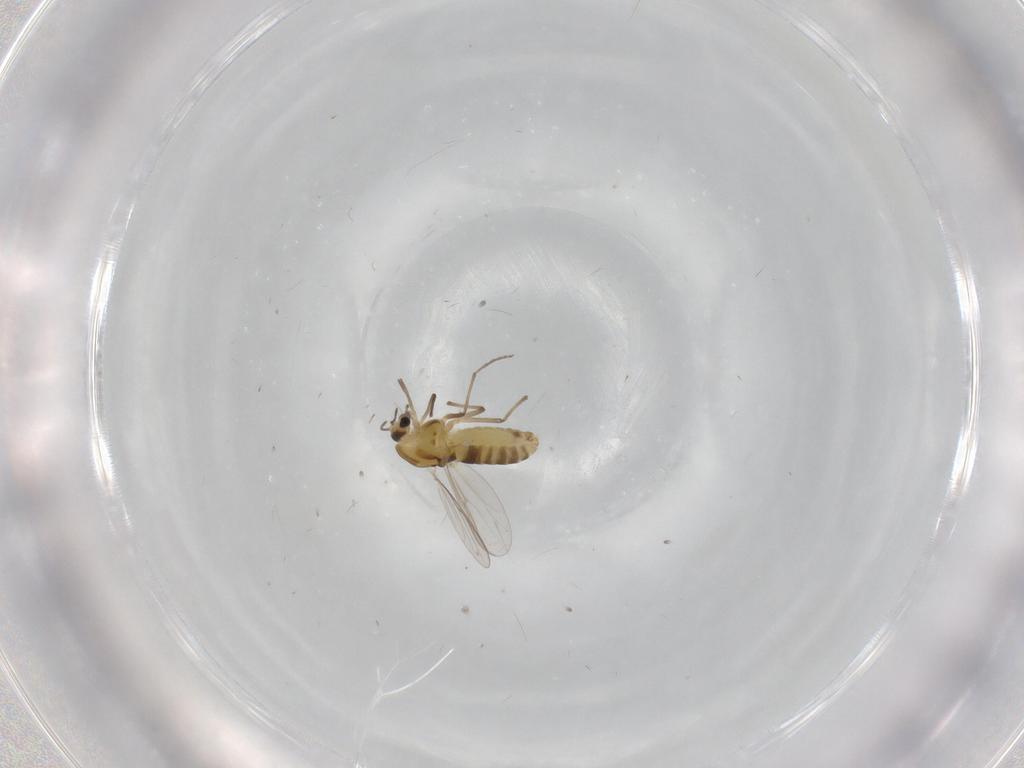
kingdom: Animalia
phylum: Arthropoda
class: Insecta
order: Diptera
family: Chironomidae
